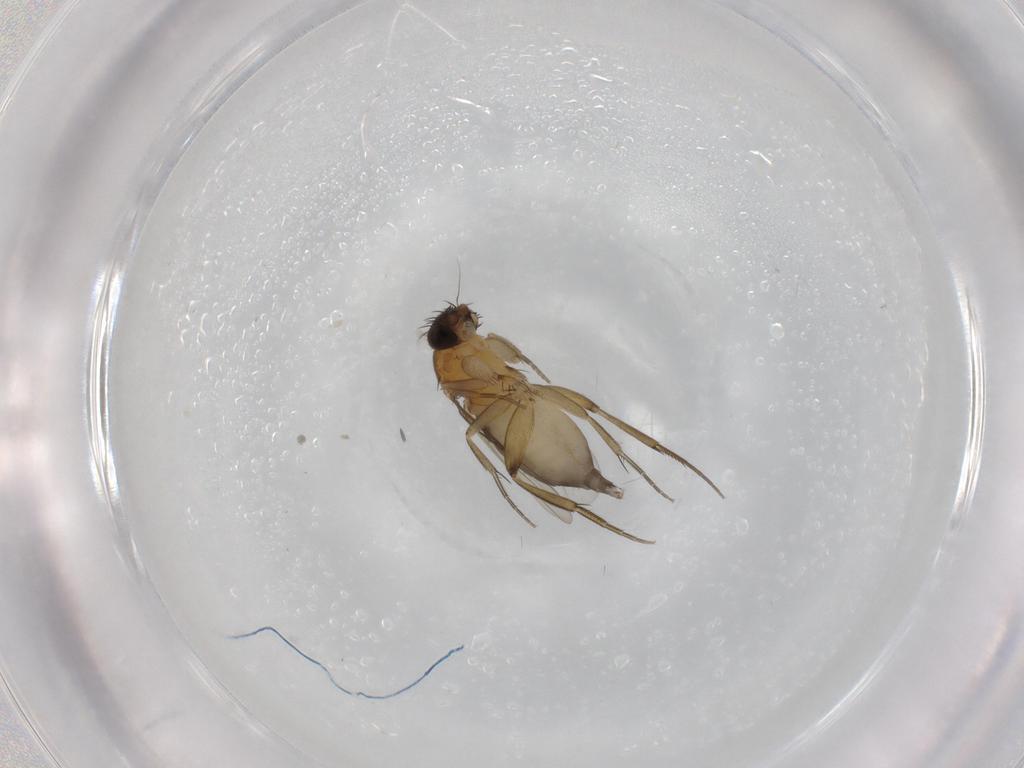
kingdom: Animalia
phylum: Arthropoda
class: Insecta
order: Diptera
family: Phoridae
